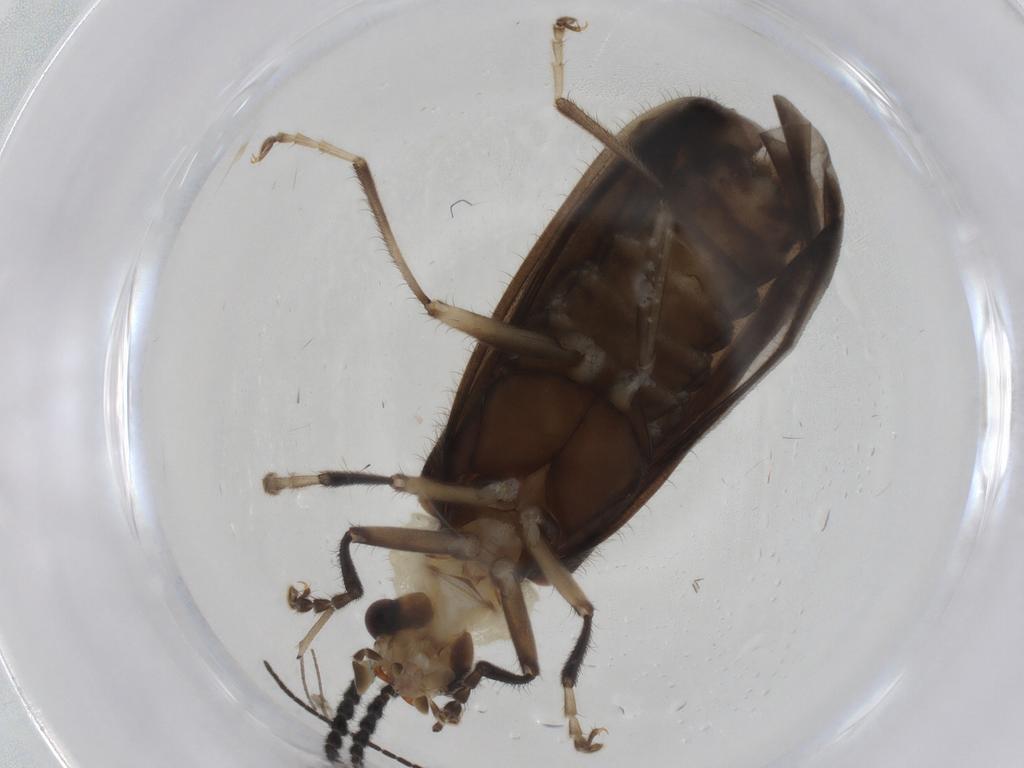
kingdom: Animalia
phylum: Arthropoda
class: Insecta
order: Coleoptera
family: Cantharidae
